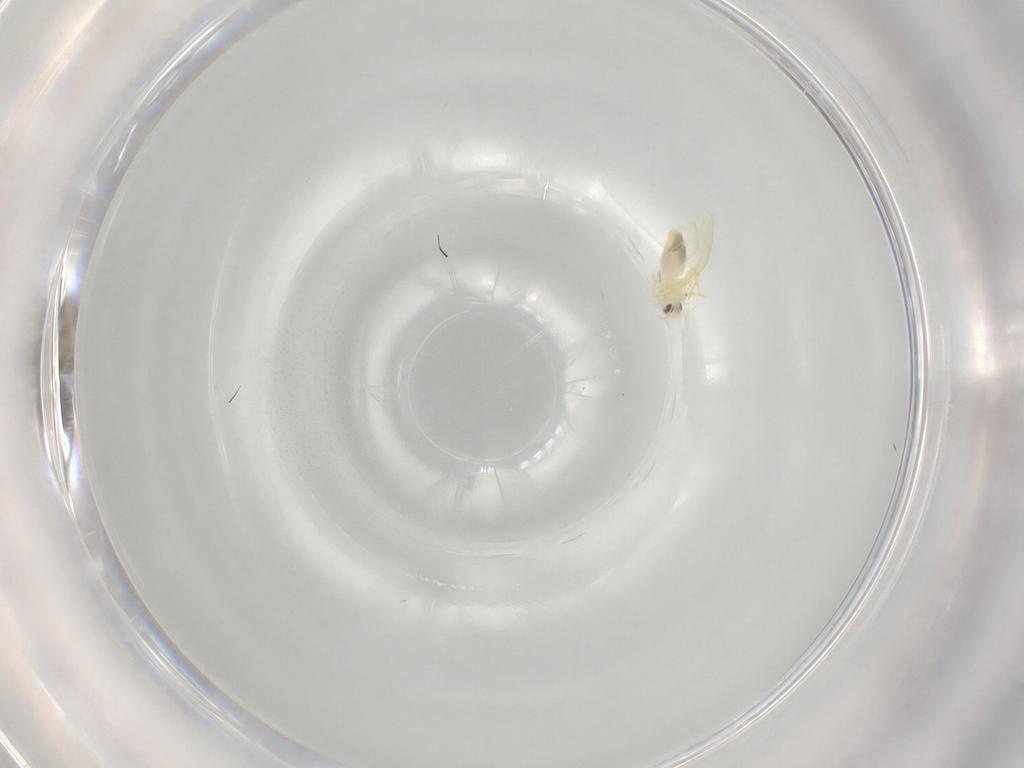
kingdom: Animalia
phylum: Arthropoda
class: Insecta
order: Hemiptera
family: Aleyrodidae
